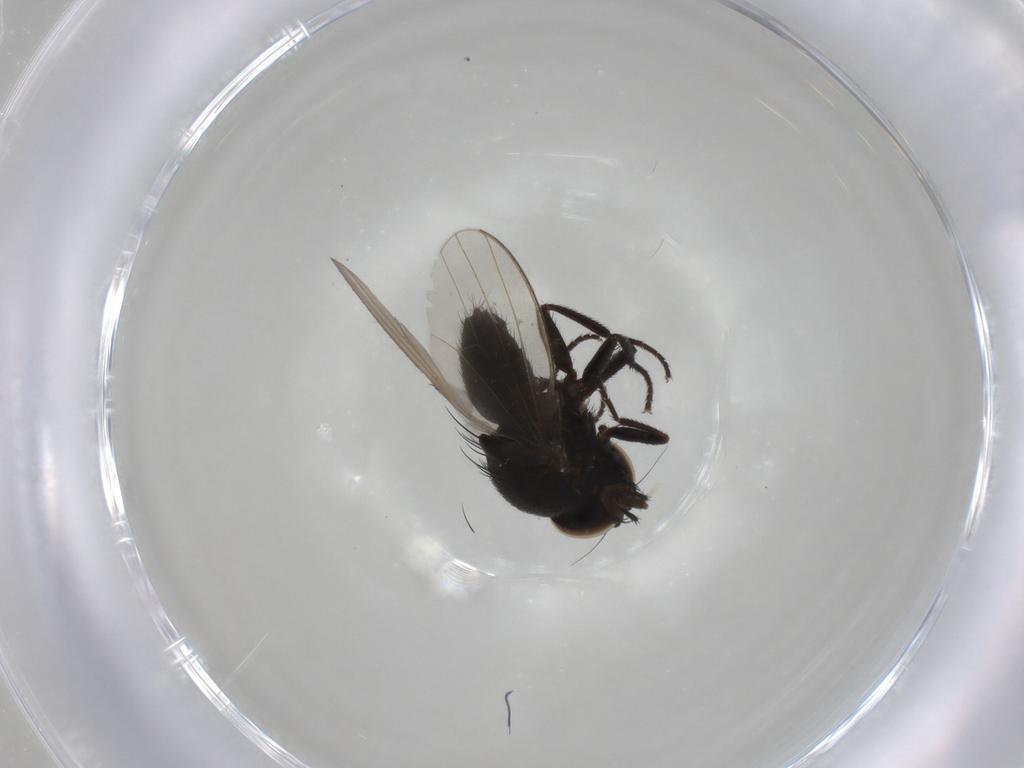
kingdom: Animalia
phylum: Arthropoda
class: Insecta
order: Diptera
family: Milichiidae
